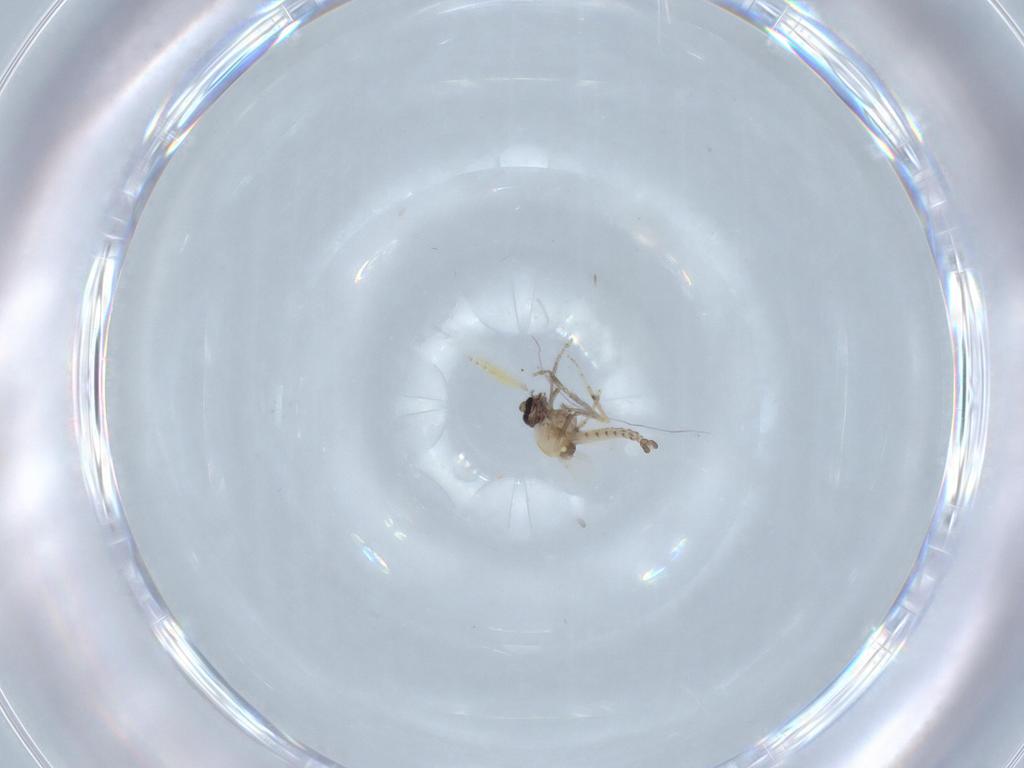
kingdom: Animalia
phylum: Arthropoda
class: Insecta
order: Diptera
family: Ceratopogonidae
